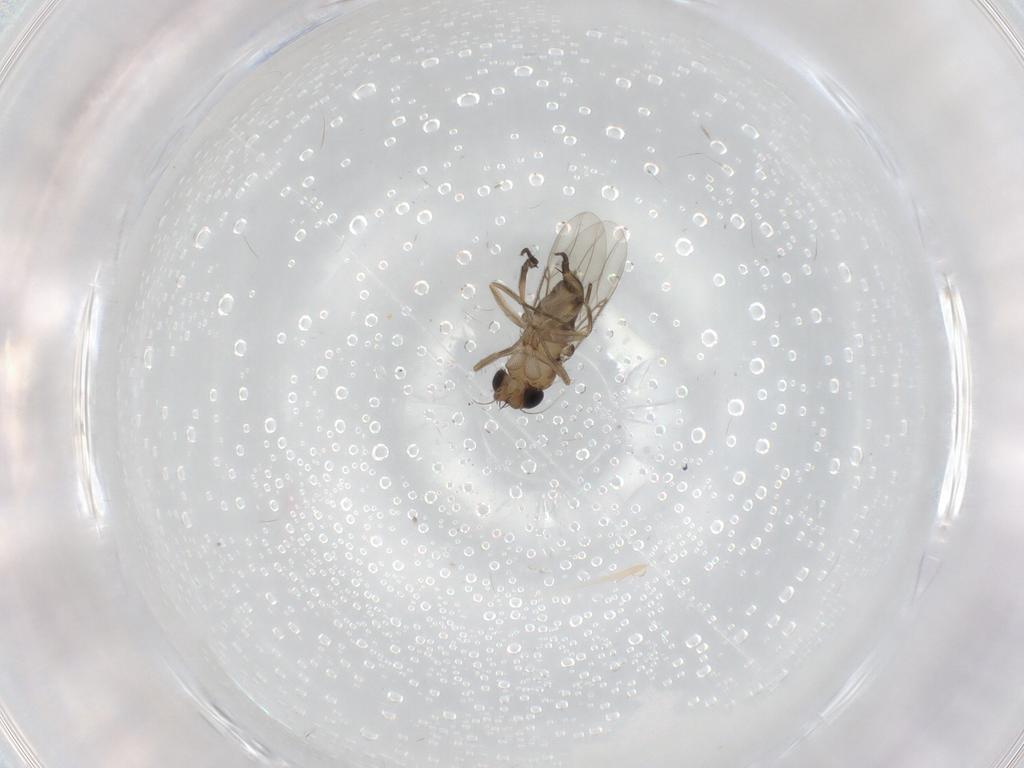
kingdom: Animalia
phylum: Arthropoda
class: Insecta
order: Diptera
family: Phoridae
